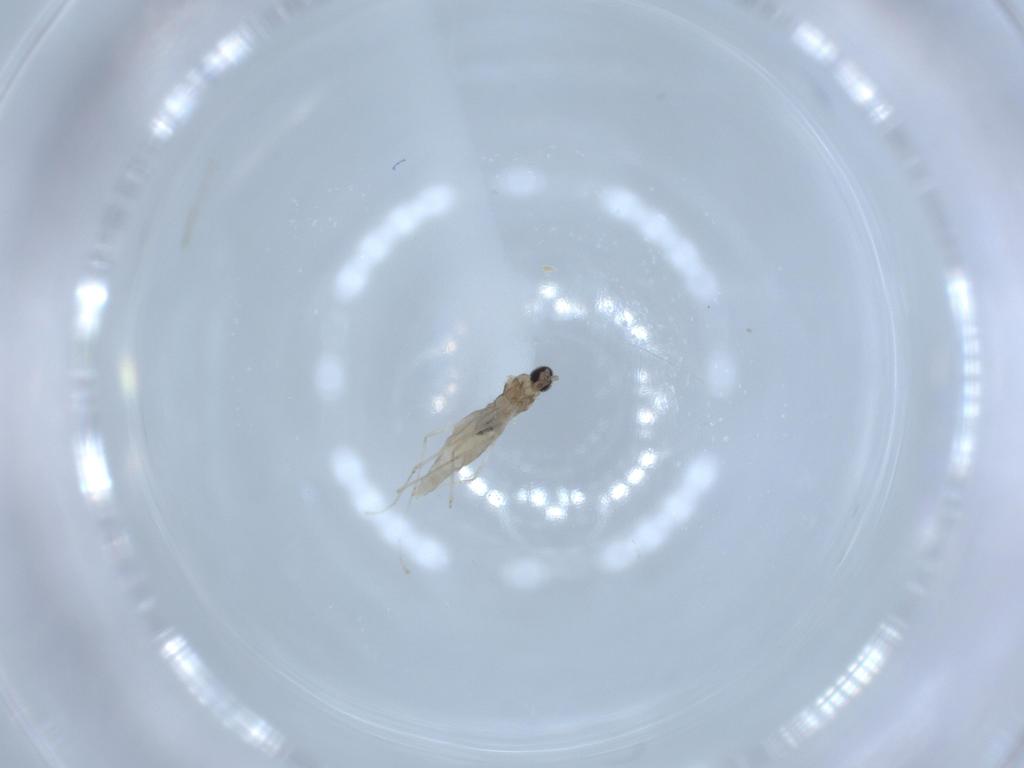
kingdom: Animalia
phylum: Arthropoda
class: Insecta
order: Diptera
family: Cecidomyiidae
